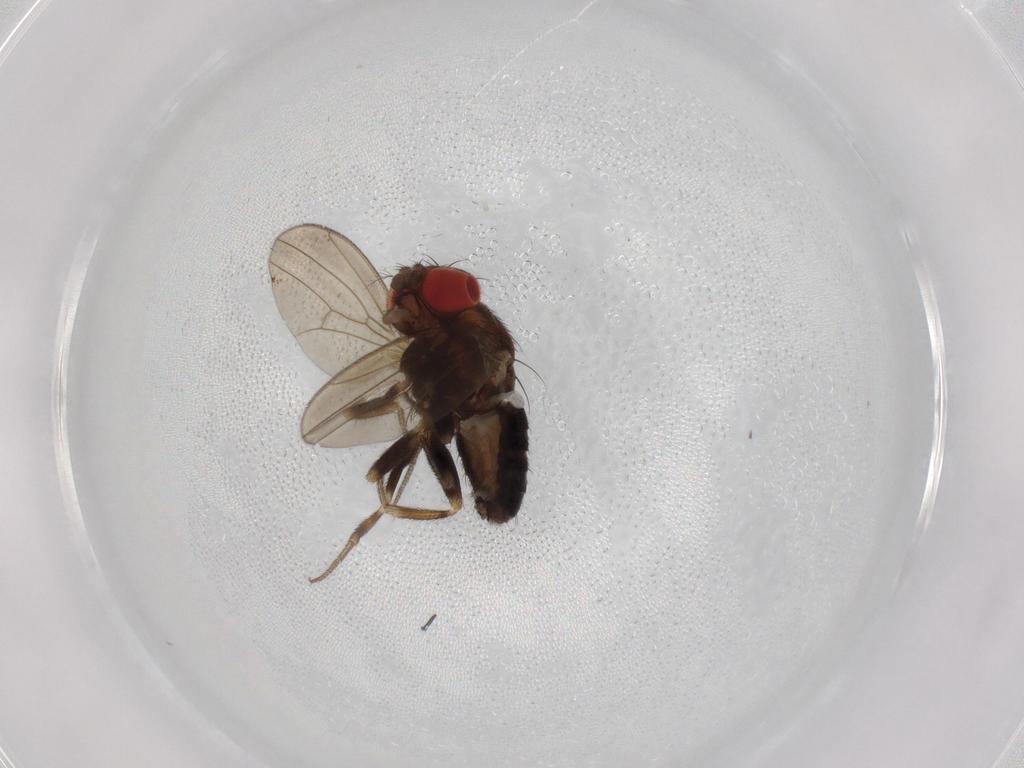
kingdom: Animalia
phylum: Arthropoda
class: Insecta
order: Diptera
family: Drosophilidae
